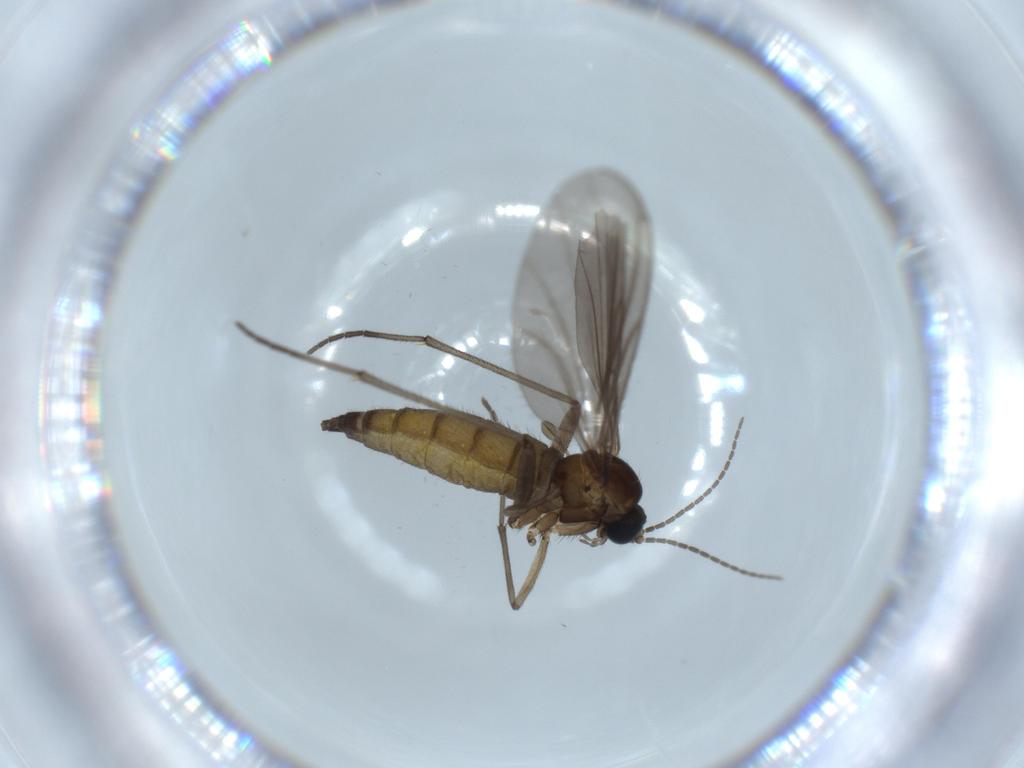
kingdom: Animalia
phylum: Arthropoda
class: Insecta
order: Diptera
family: Sciaridae
